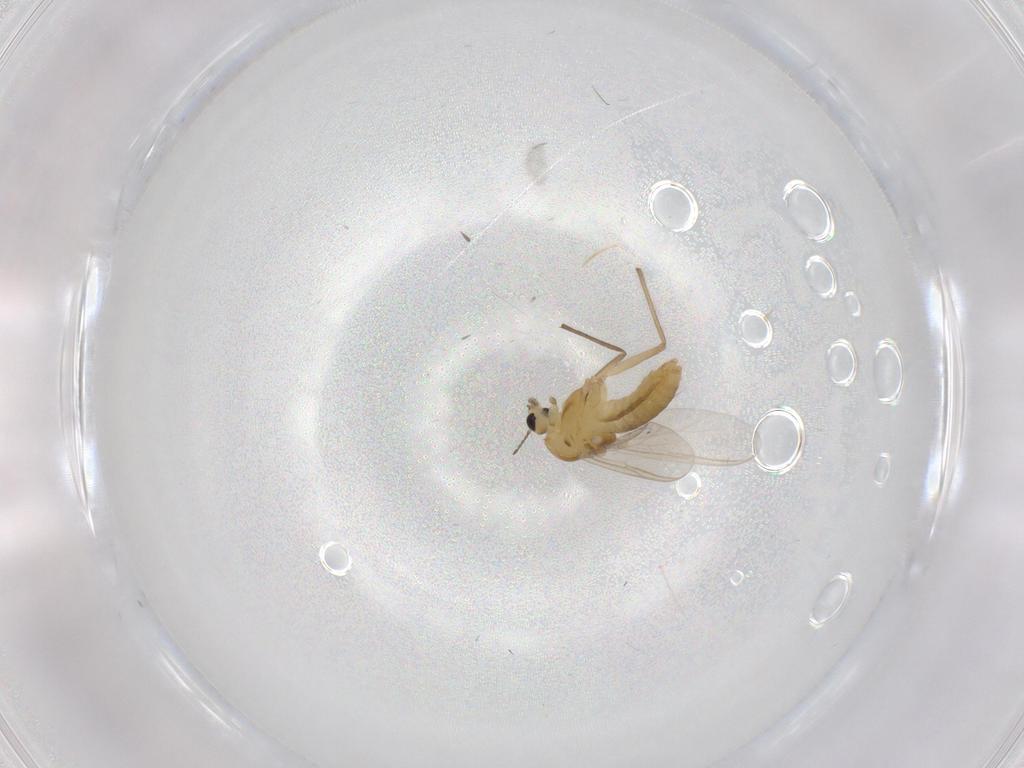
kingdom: Animalia
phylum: Arthropoda
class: Insecta
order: Diptera
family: Chironomidae
